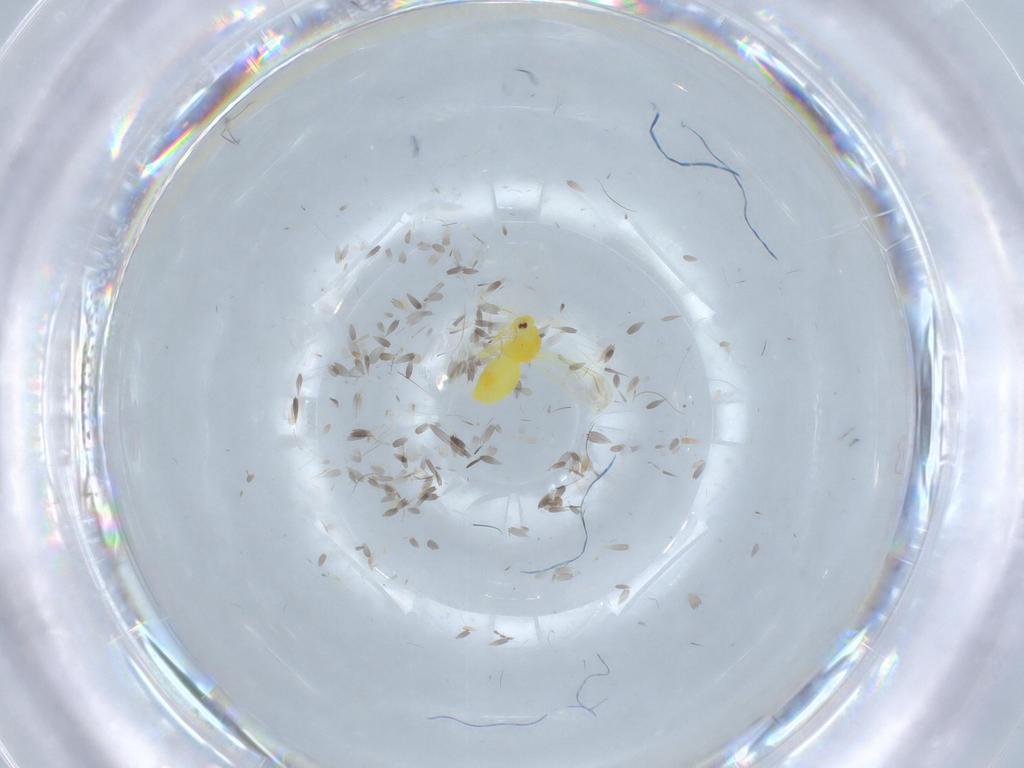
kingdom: Animalia
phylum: Arthropoda
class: Insecta
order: Hemiptera
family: Aleyrodidae
